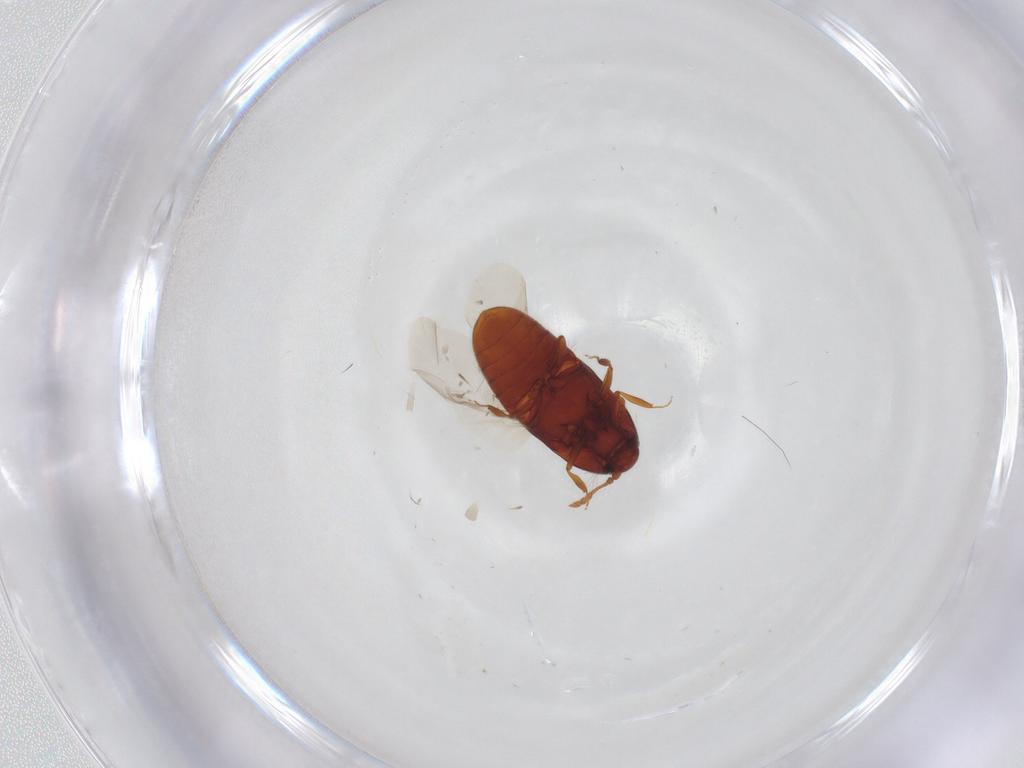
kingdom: Animalia
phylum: Arthropoda
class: Insecta
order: Coleoptera
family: Throscidae
